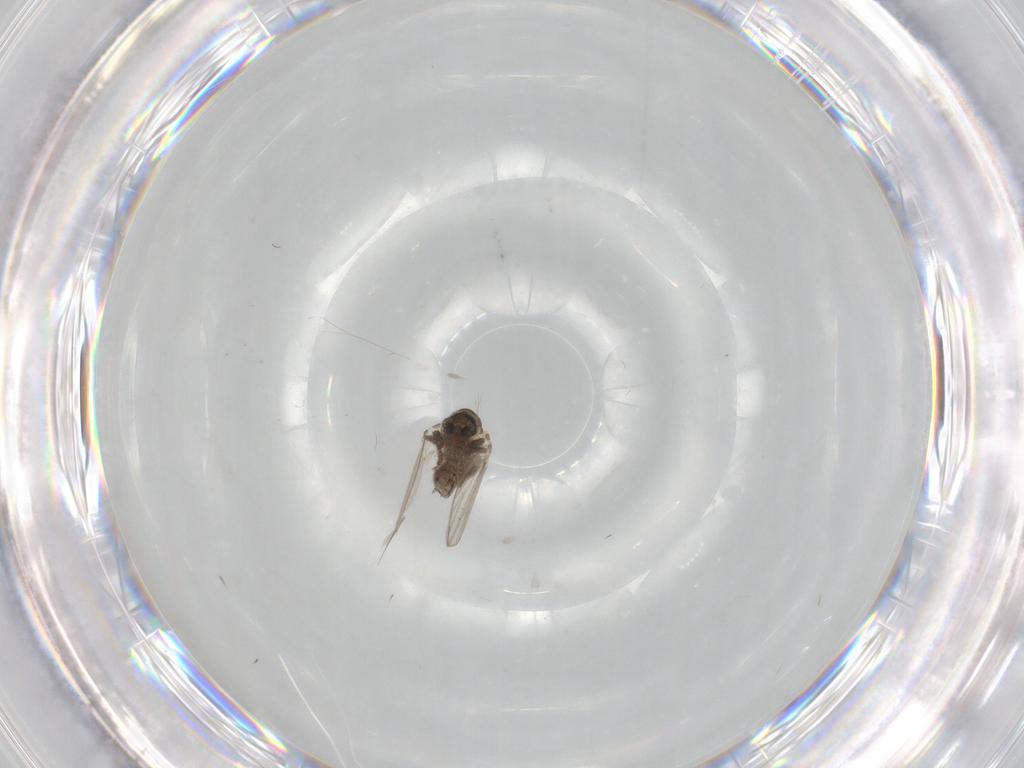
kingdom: Animalia
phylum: Arthropoda
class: Insecta
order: Diptera
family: Psychodidae
